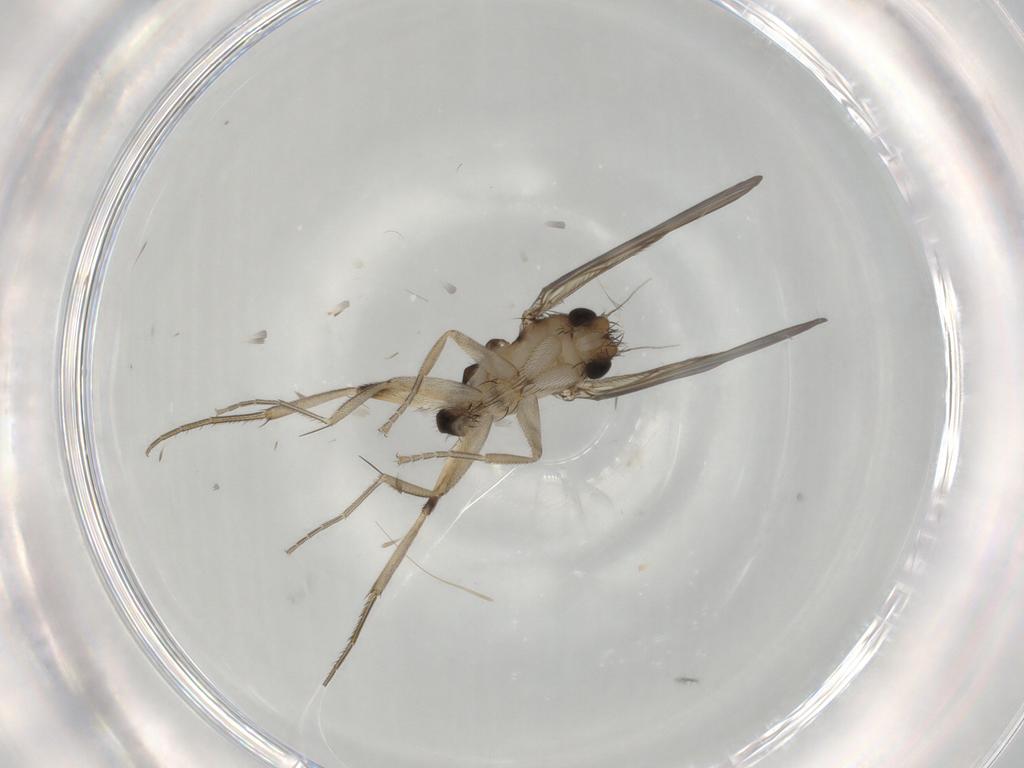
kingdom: Animalia
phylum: Arthropoda
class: Insecta
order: Diptera
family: Phoridae
